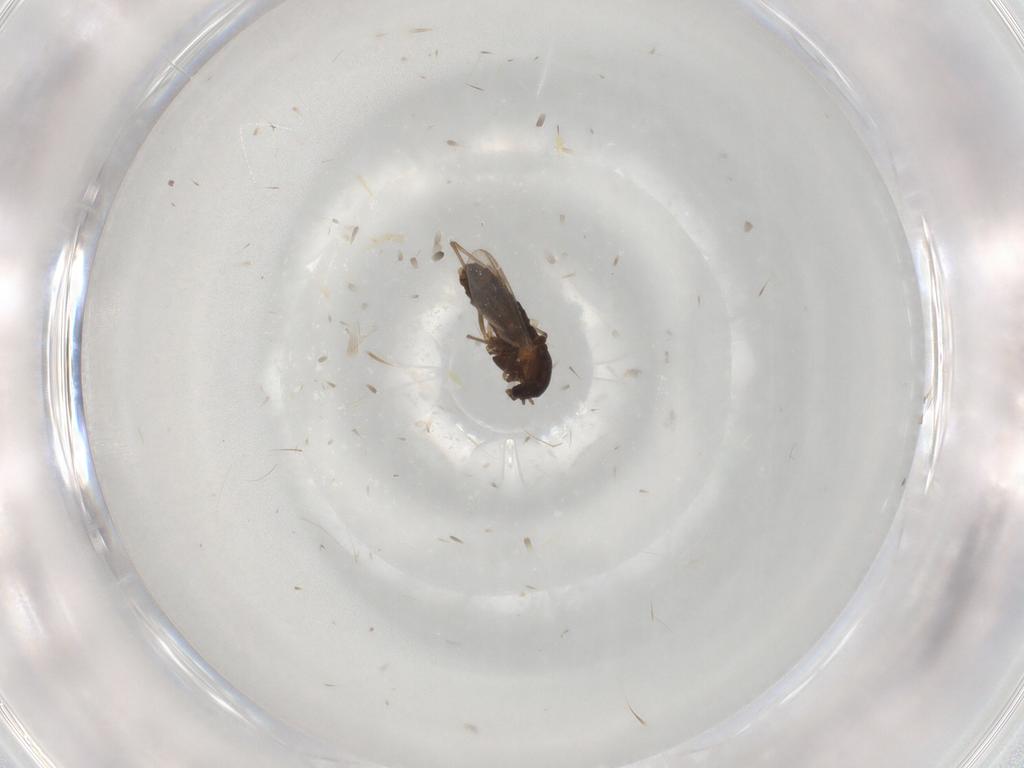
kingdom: Animalia
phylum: Arthropoda
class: Insecta
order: Diptera
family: Chironomidae
